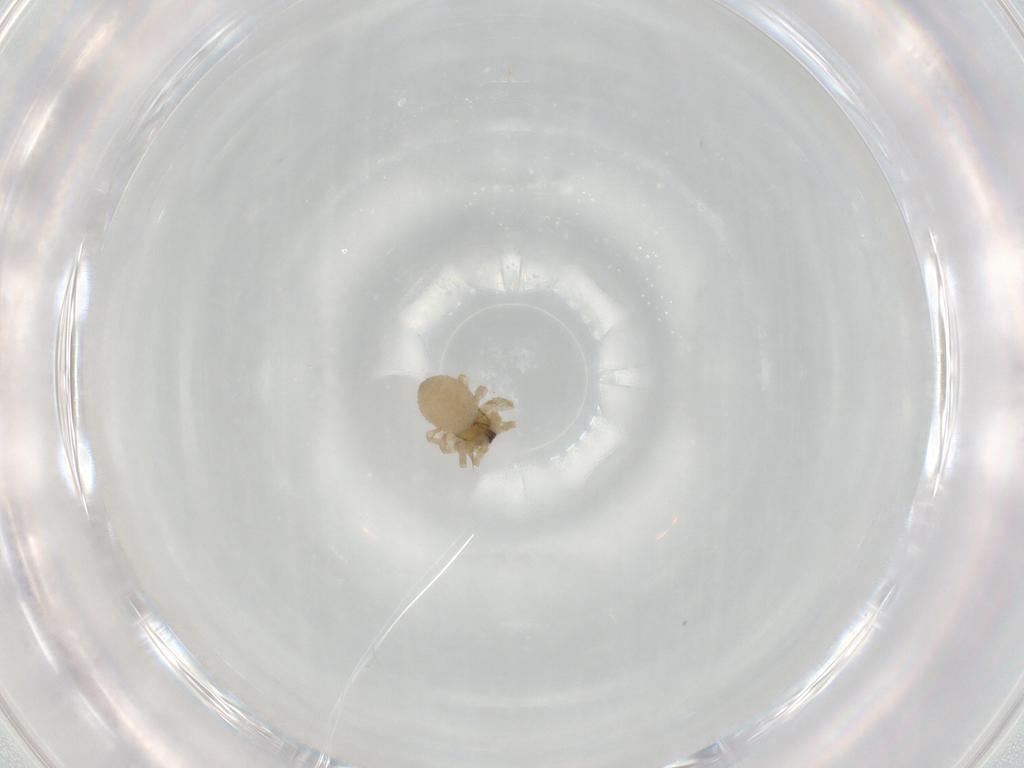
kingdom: Animalia
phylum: Arthropoda
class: Arachnida
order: Araneae
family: Linyphiidae
